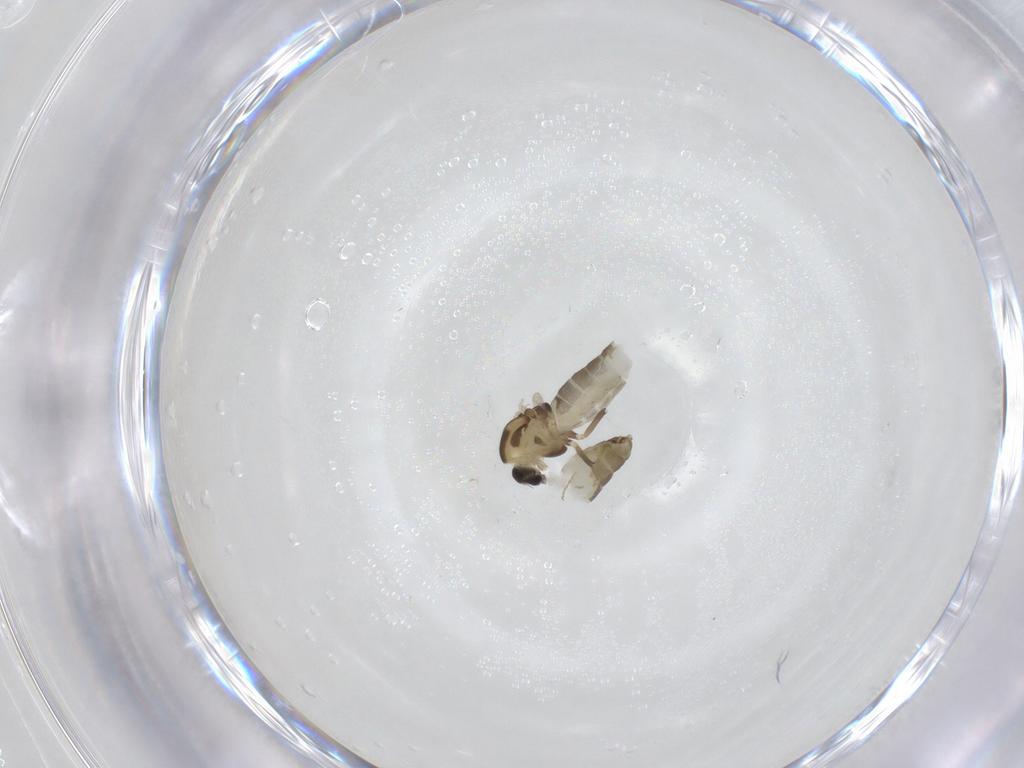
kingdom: Animalia
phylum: Arthropoda
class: Insecta
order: Diptera
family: Chironomidae
